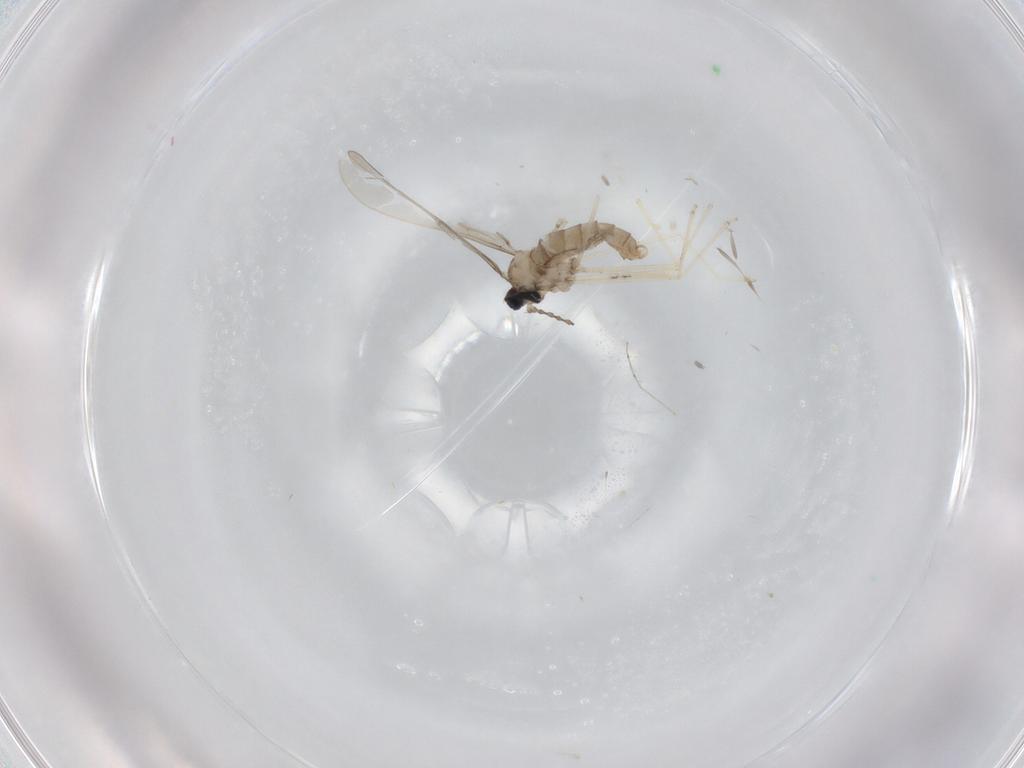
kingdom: Animalia
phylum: Arthropoda
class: Insecta
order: Diptera
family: Cecidomyiidae
